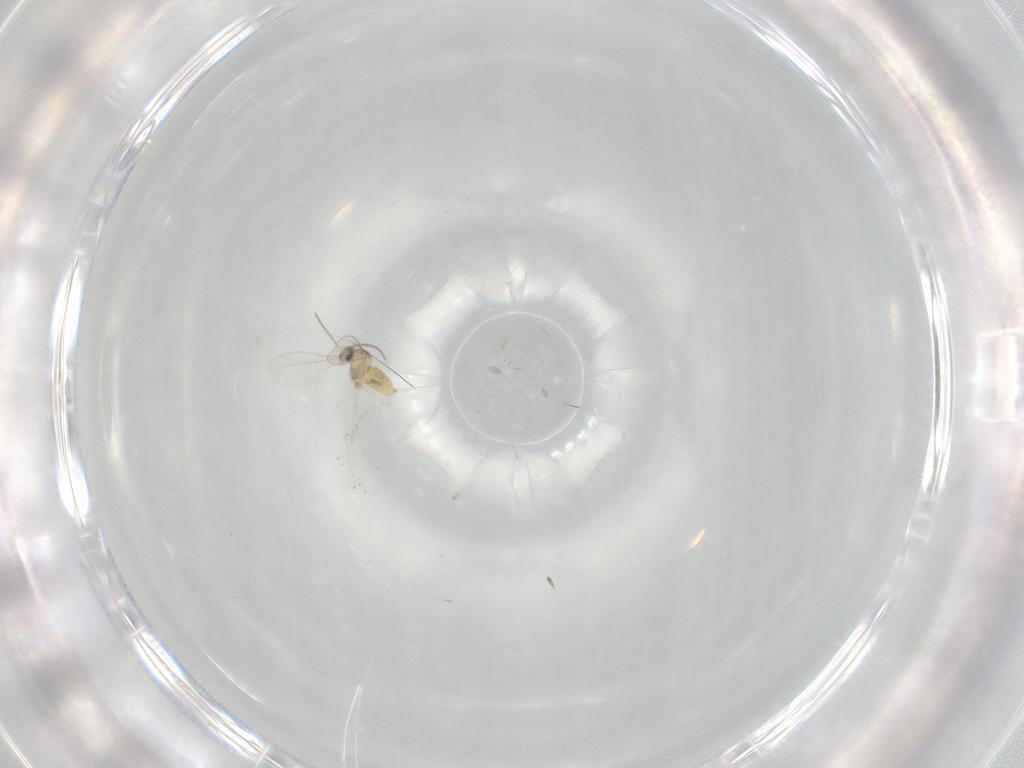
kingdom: Animalia
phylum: Arthropoda
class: Insecta
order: Diptera
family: Cecidomyiidae
